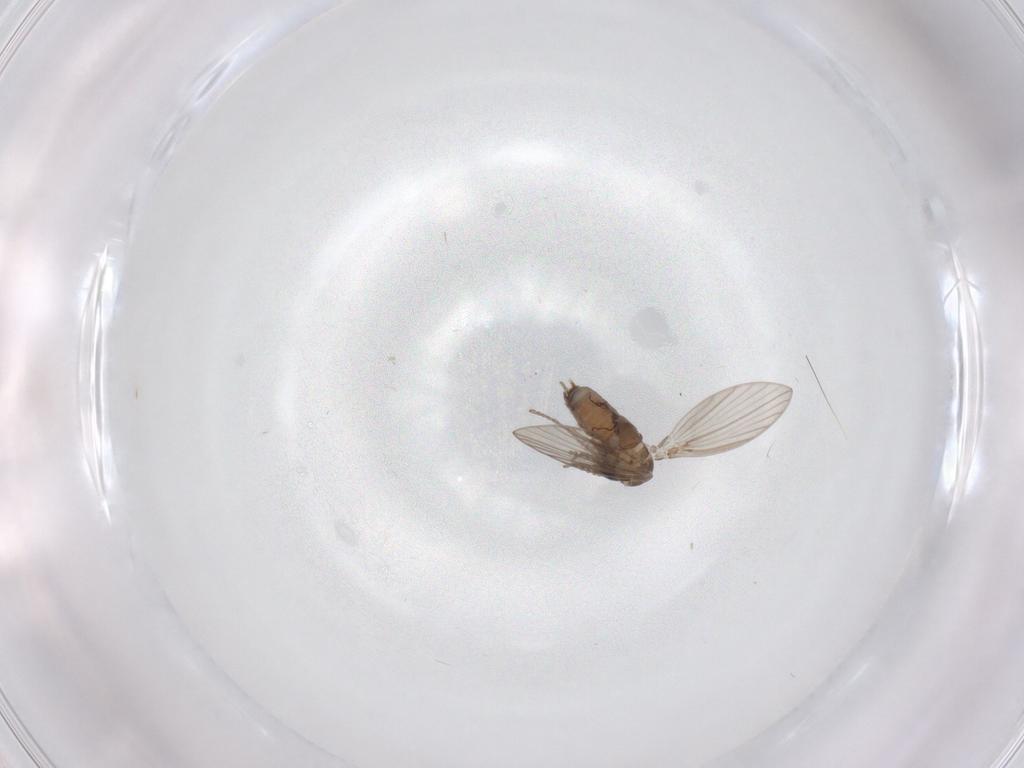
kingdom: Animalia
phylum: Arthropoda
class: Insecta
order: Diptera
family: Psychodidae
